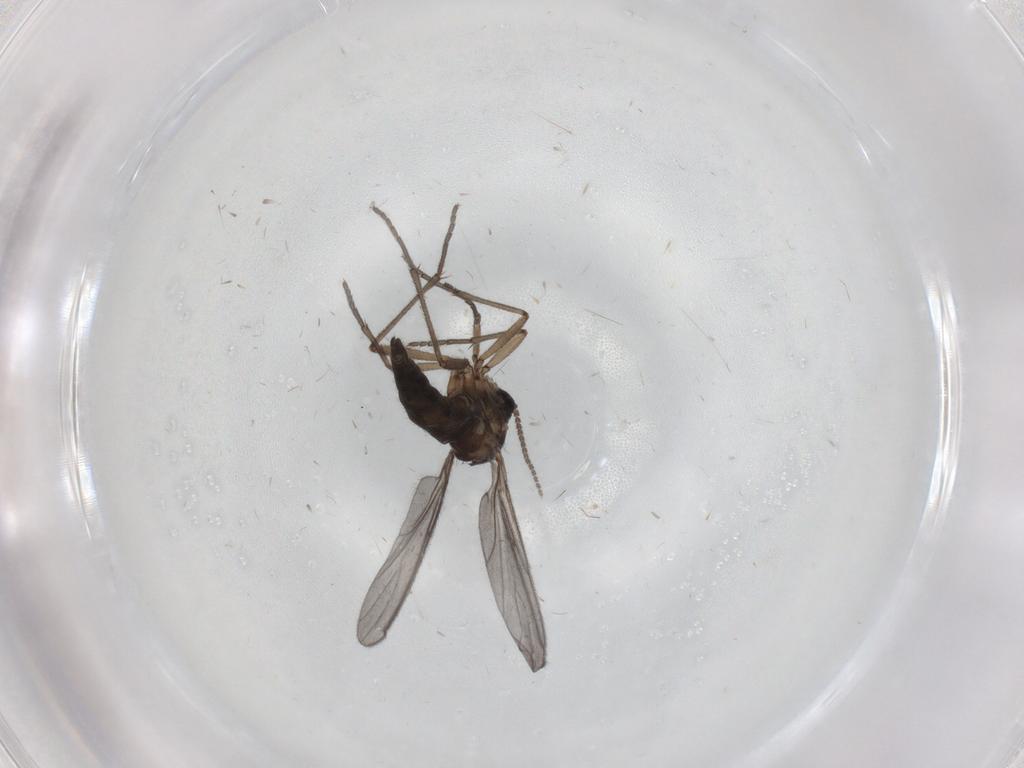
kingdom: Animalia
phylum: Arthropoda
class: Insecta
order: Diptera
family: Sciaridae
